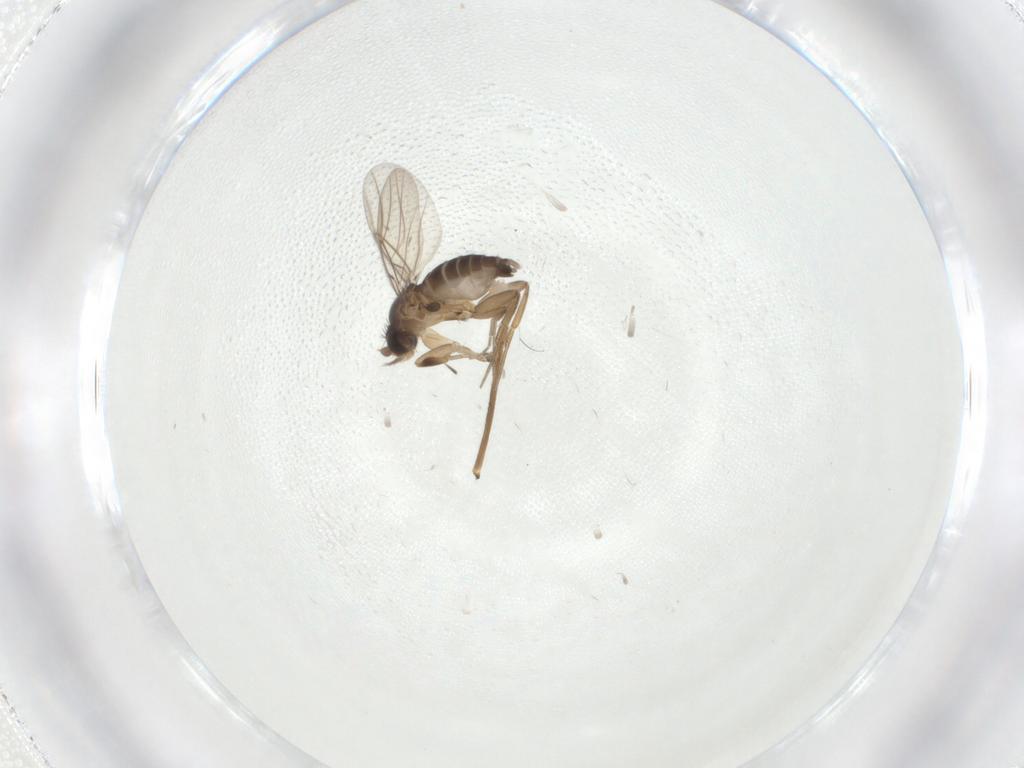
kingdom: Animalia
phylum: Arthropoda
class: Insecta
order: Diptera
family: Phoridae
